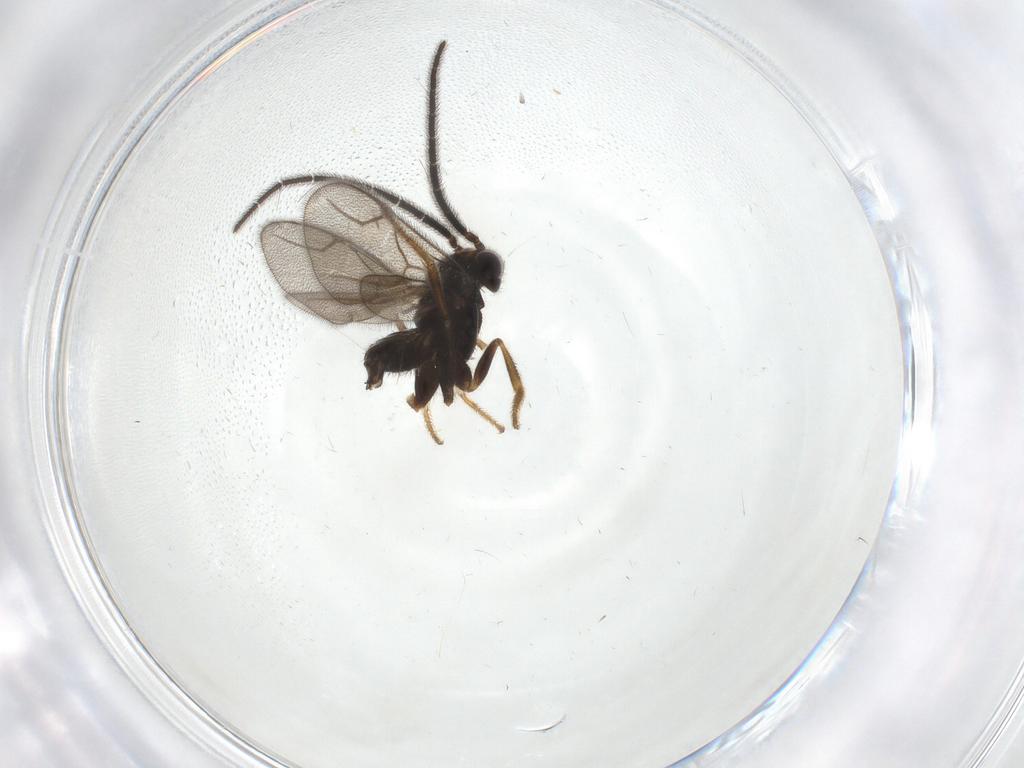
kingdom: Animalia
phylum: Arthropoda
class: Insecta
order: Hymenoptera
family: Dryinidae
